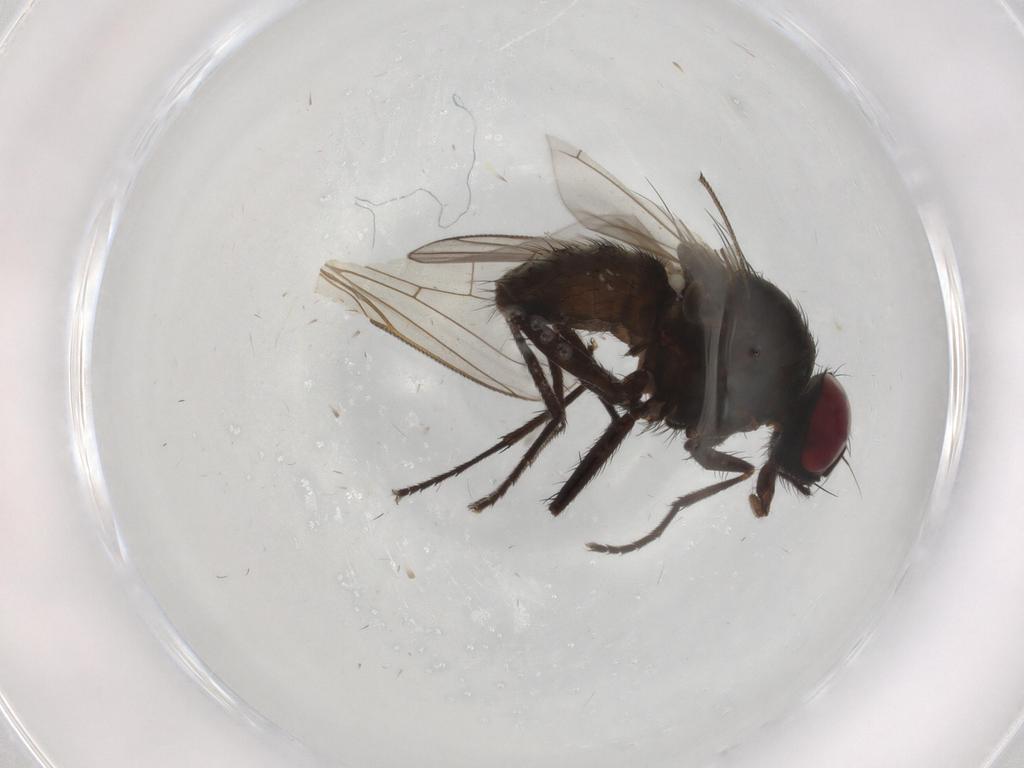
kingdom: Animalia
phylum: Arthropoda
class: Insecta
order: Diptera
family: Muscidae
